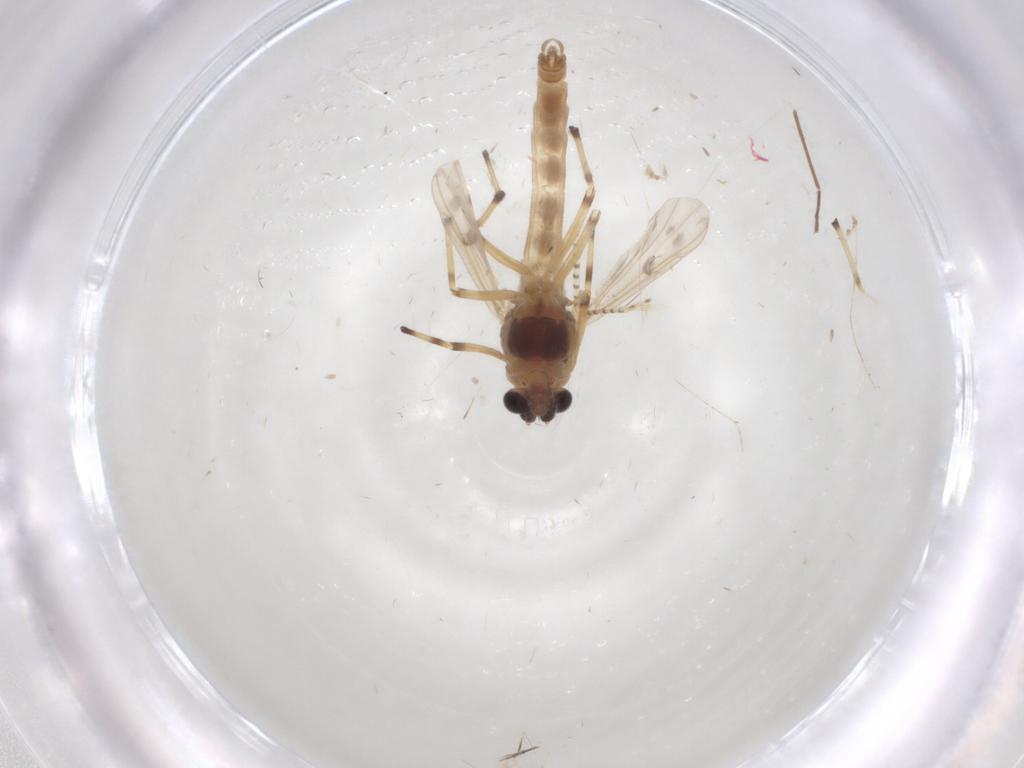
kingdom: Animalia
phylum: Arthropoda
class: Insecta
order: Diptera
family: Chironomidae
